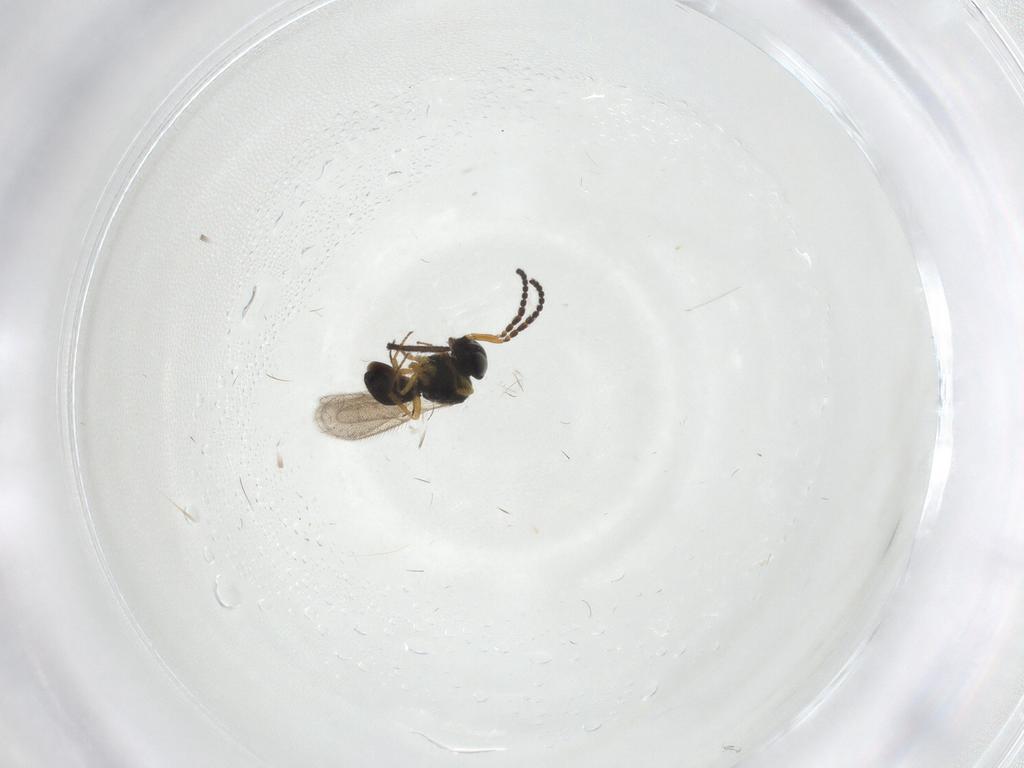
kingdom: Animalia
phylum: Arthropoda
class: Insecta
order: Hymenoptera
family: Scelionidae
